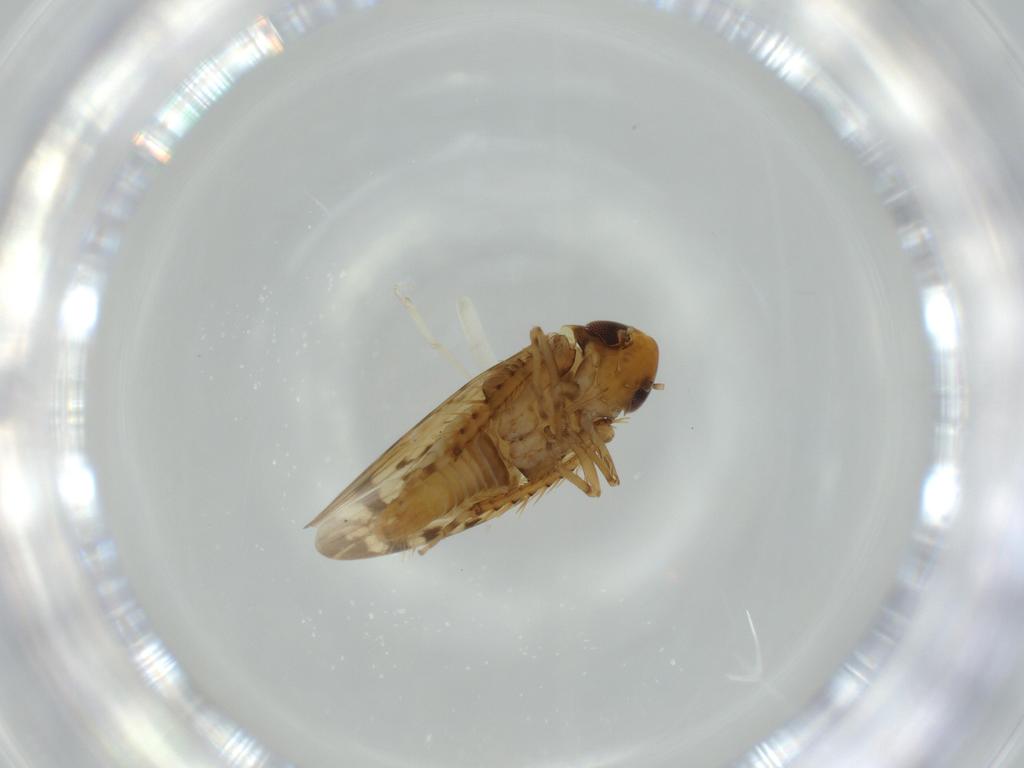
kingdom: Animalia
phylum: Arthropoda
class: Insecta
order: Hemiptera
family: Cicadellidae
